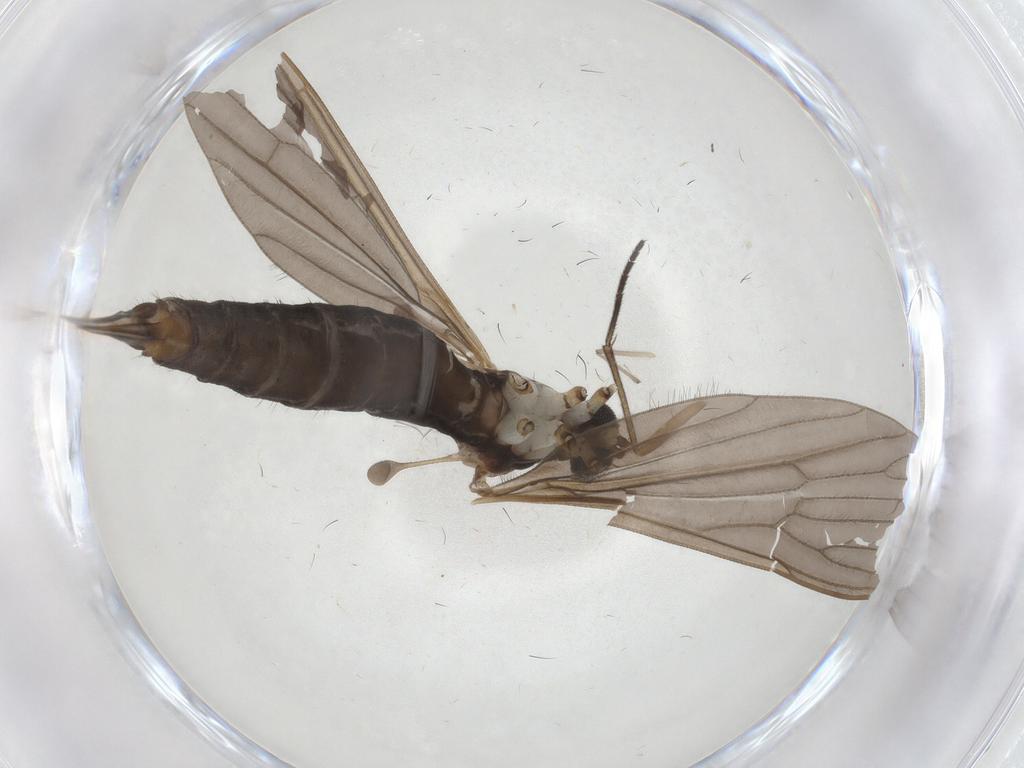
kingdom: Animalia
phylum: Arthropoda
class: Insecta
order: Diptera
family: Limoniidae
